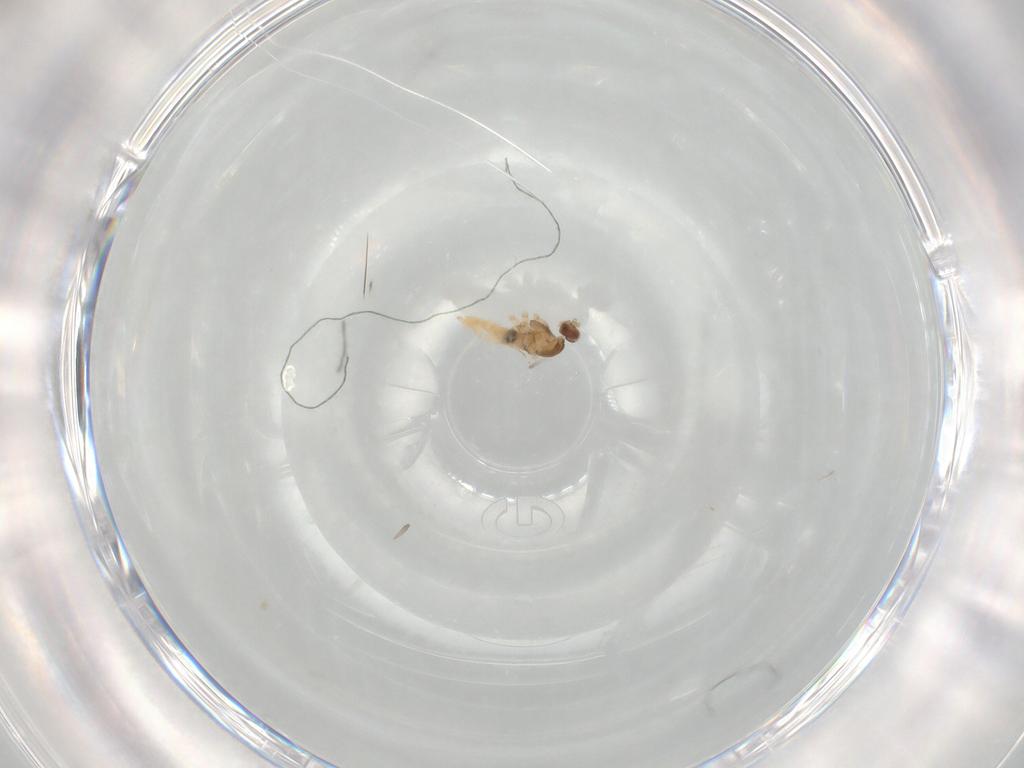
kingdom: Animalia
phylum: Arthropoda
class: Insecta
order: Diptera
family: Cecidomyiidae
